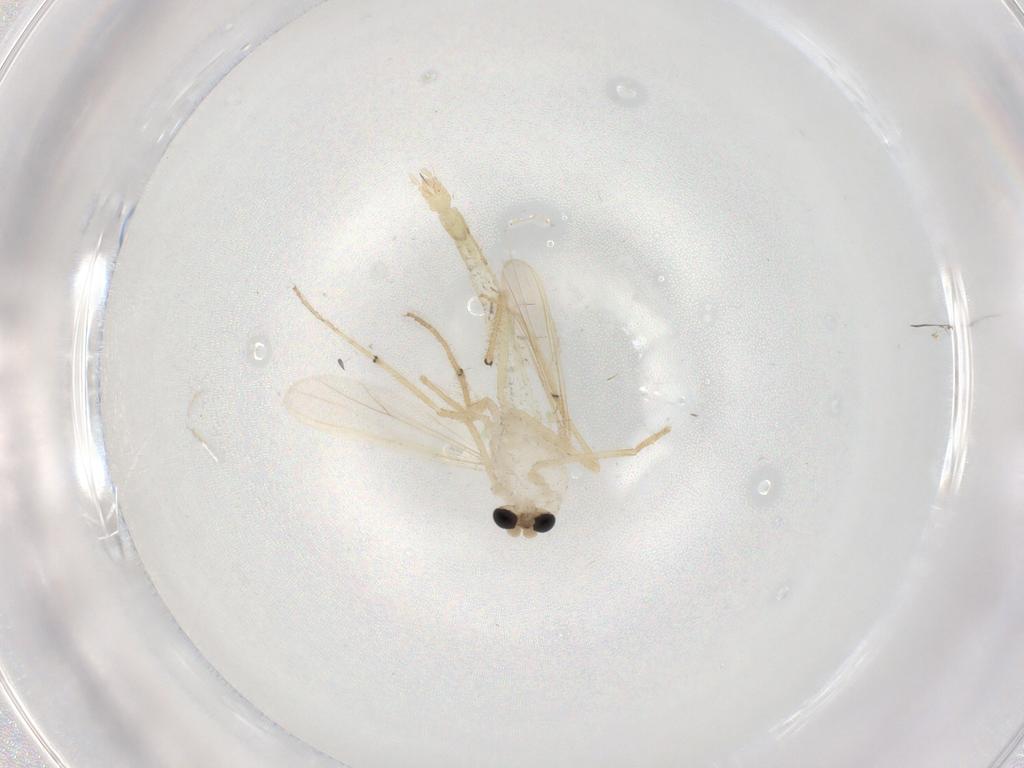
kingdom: Animalia
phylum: Arthropoda
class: Insecta
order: Diptera
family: Chironomidae
